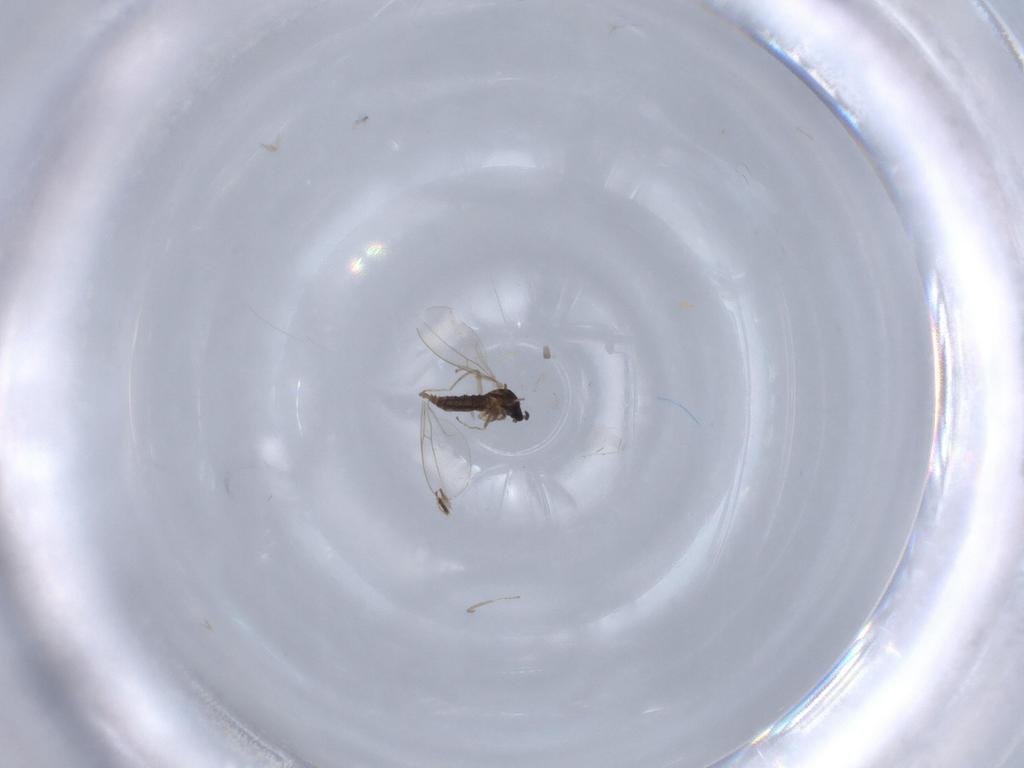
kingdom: Animalia
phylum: Arthropoda
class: Insecta
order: Diptera
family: Cecidomyiidae
